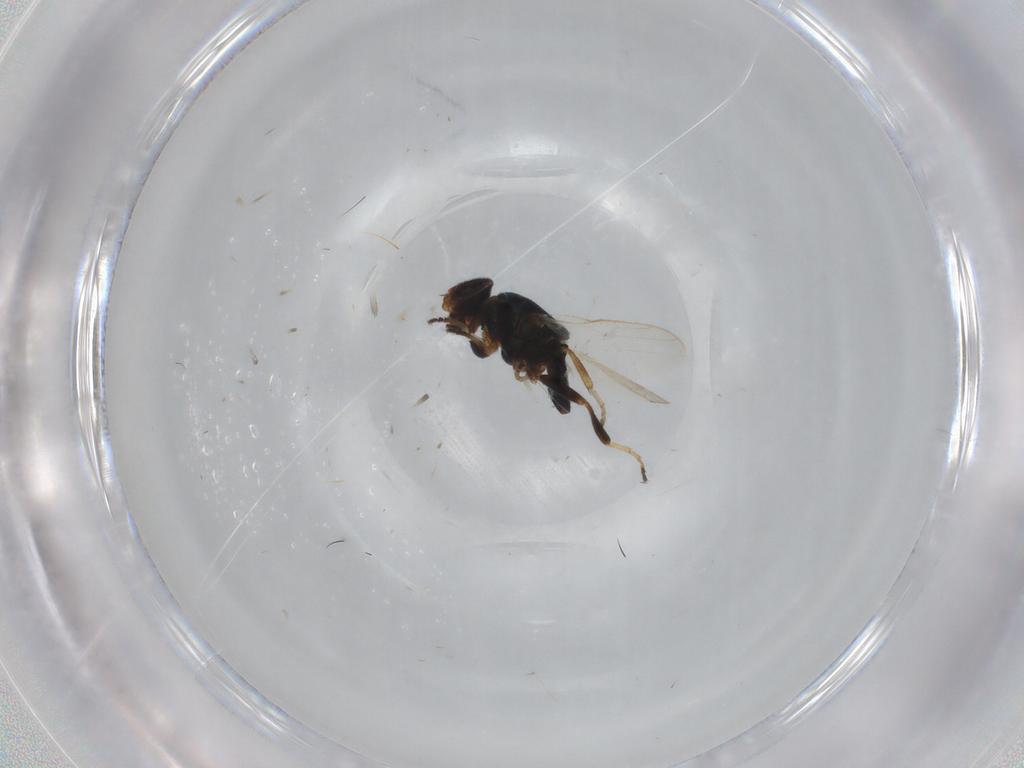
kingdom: Animalia
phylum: Arthropoda
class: Insecta
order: Diptera
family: Chloropidae
